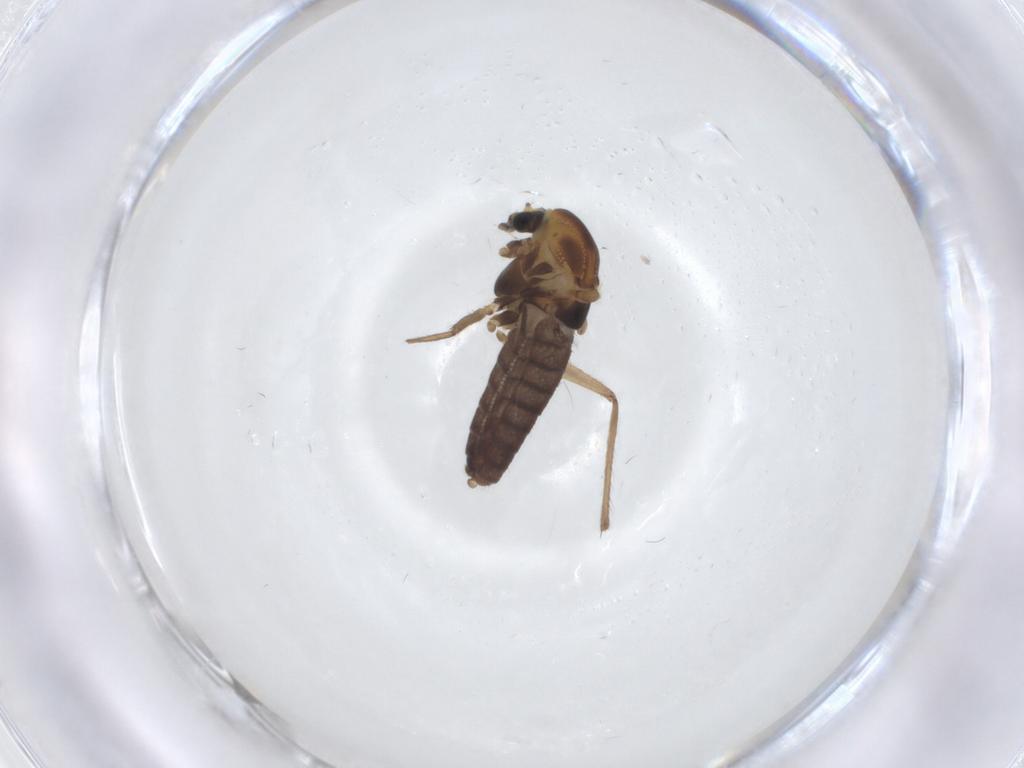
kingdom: Animalia
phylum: Arthropoda
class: Insecta
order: Diptera
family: Chironomidae
